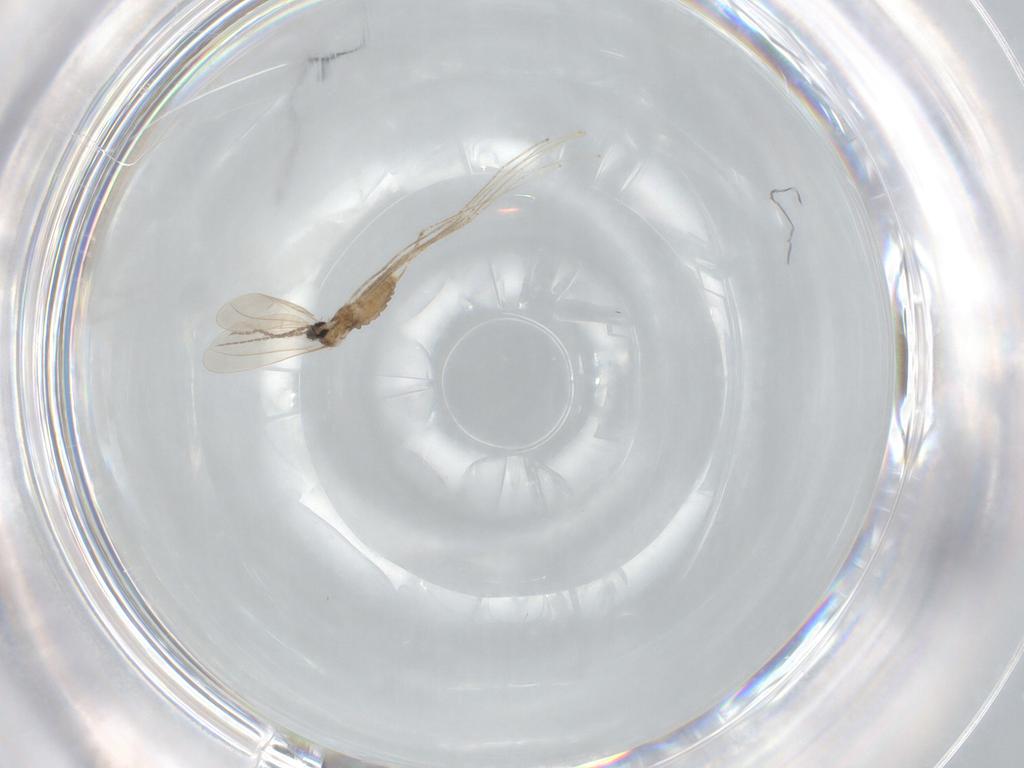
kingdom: Animalia
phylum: Arthropoda
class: Insecta
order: Diptera
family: Cecidomyiidae
